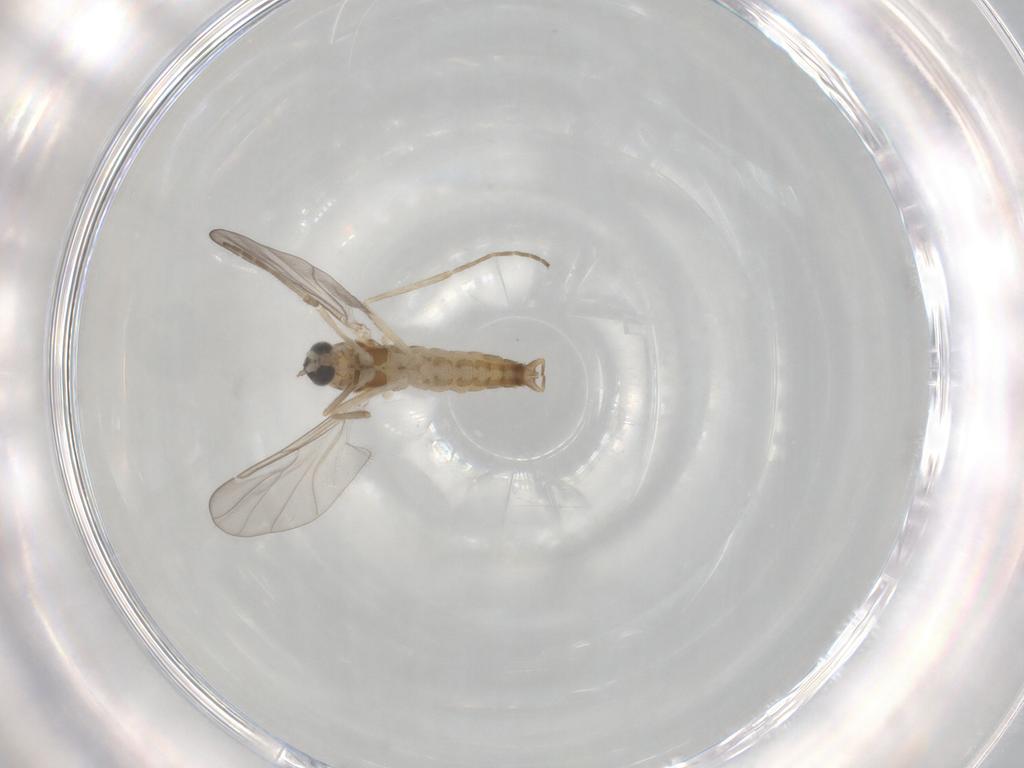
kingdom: Animalia
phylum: Arthropoda
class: Insecta
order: Diptera
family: Cecidomyiidae
